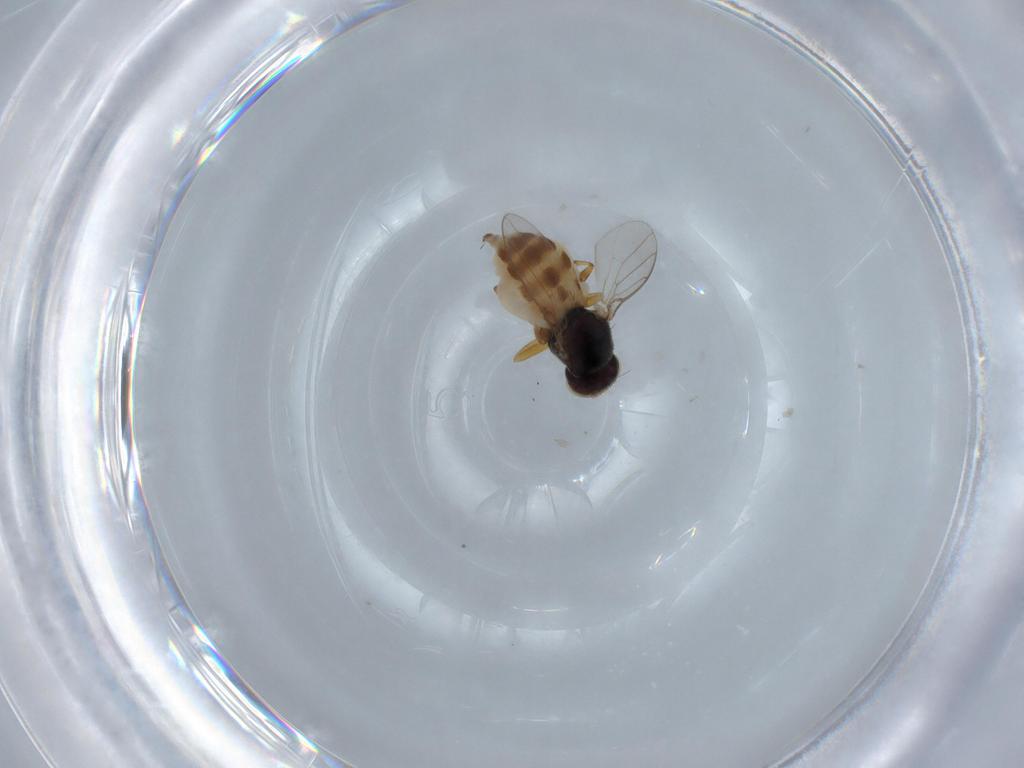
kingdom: Animalia
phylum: Arthropoda
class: Insecta
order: Diptera
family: Chloropidae
